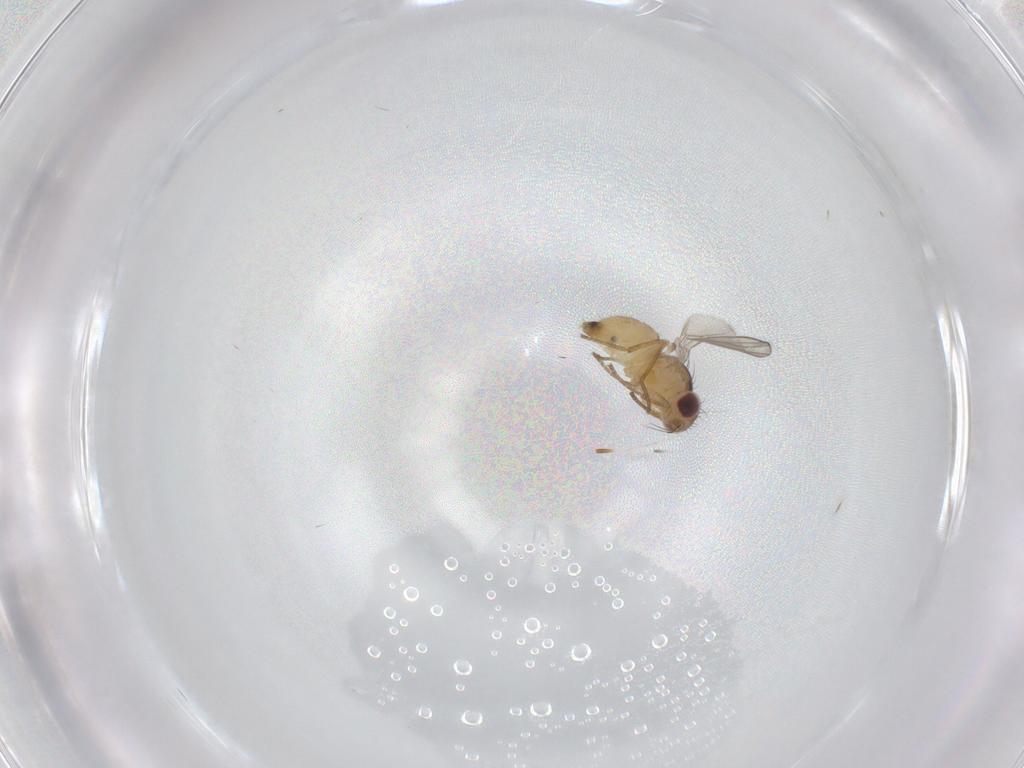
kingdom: Animalia
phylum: Arthropoda
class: Insecta
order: Diptera
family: Agromyzidae
